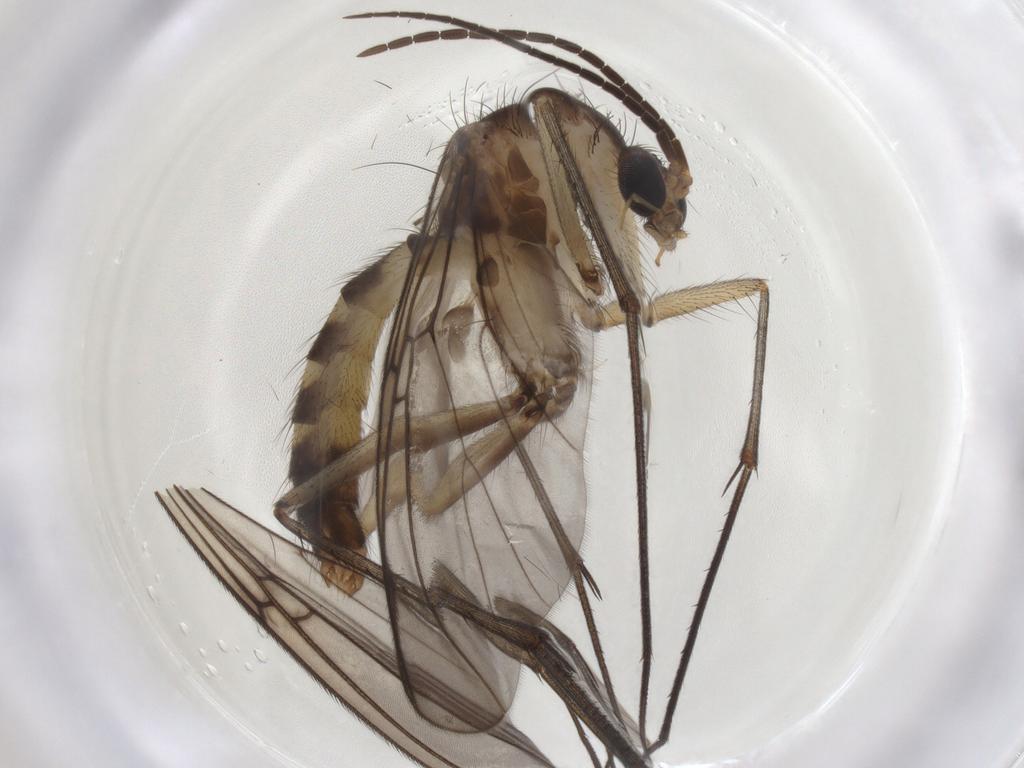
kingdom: Animalia
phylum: Arthropoda
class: Insecta
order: Diptera
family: Mycetophilidae
